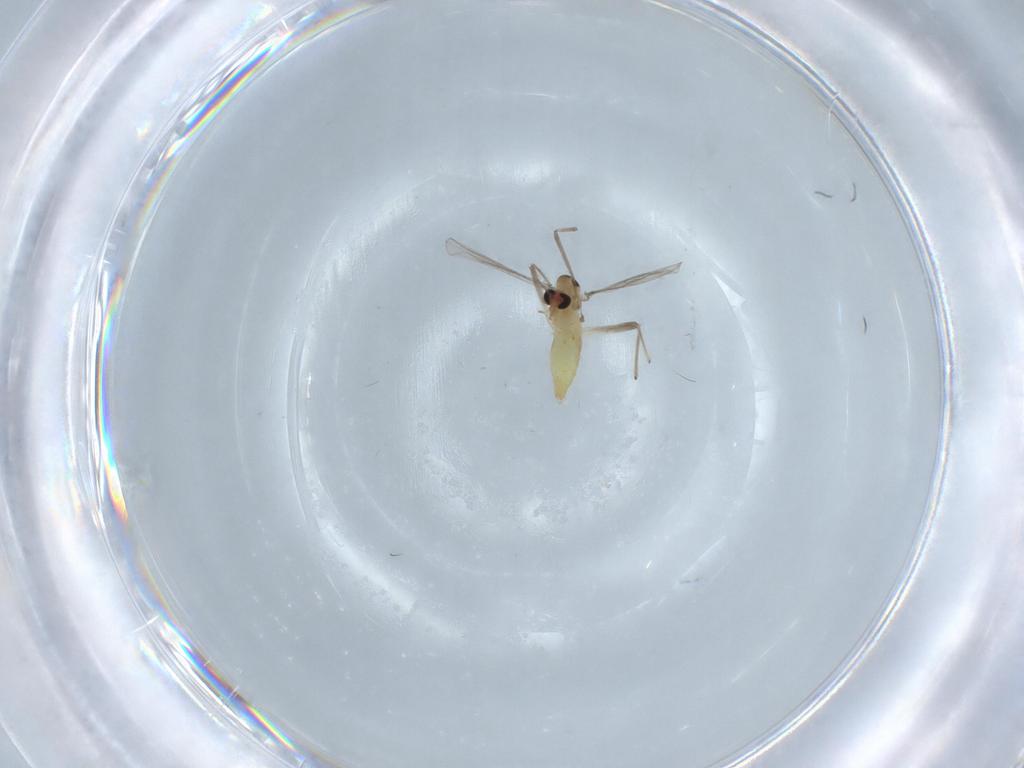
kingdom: Animalia
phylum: Arthropoda
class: Insecta
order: Diptera
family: Chironomidae
